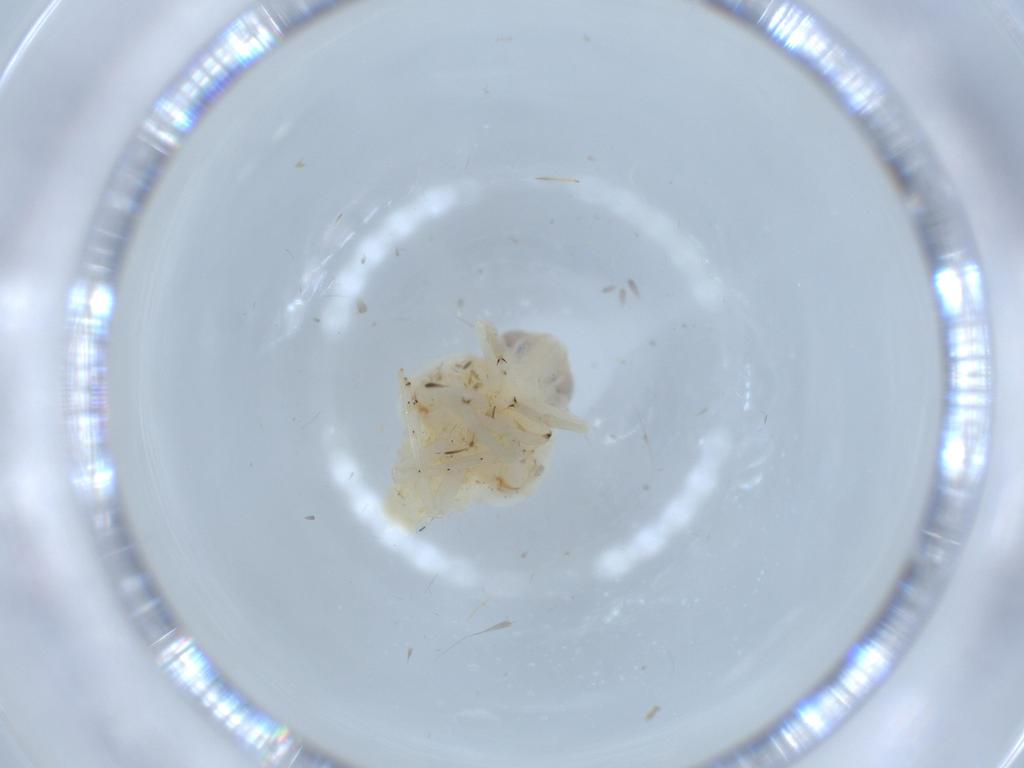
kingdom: Animalia
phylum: Arthropoda
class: Insecta
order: Hemiptera
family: Nogodinidae
